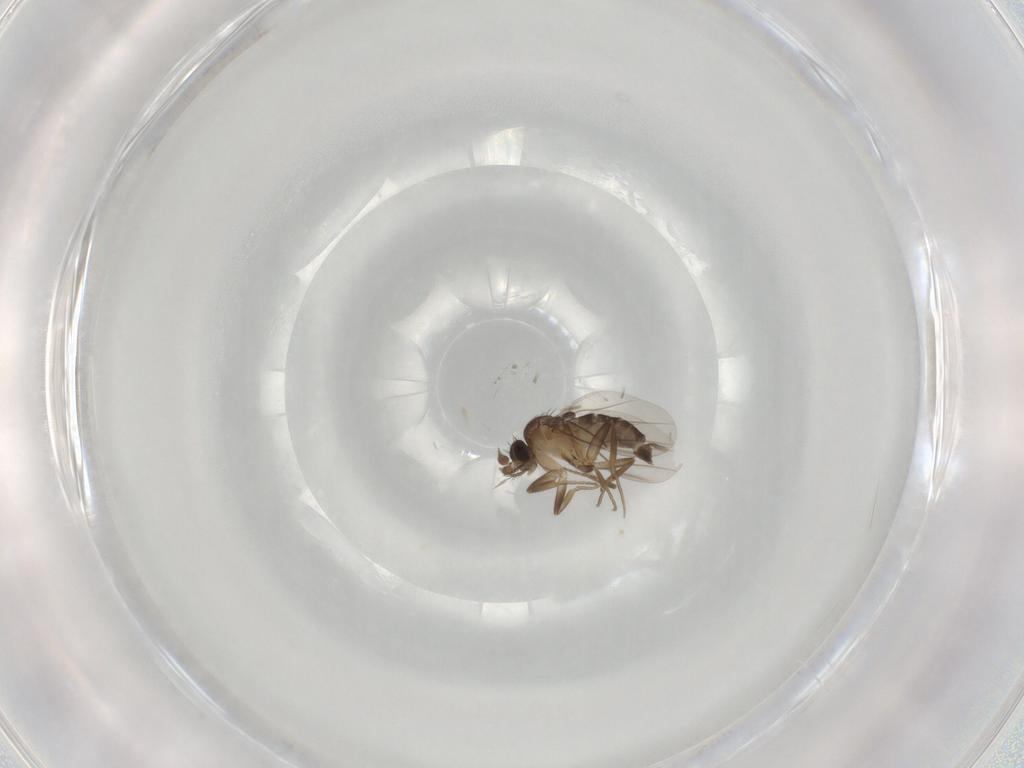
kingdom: Animalia
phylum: Arthropoda
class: Insecta
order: Diptera
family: Phoridae
